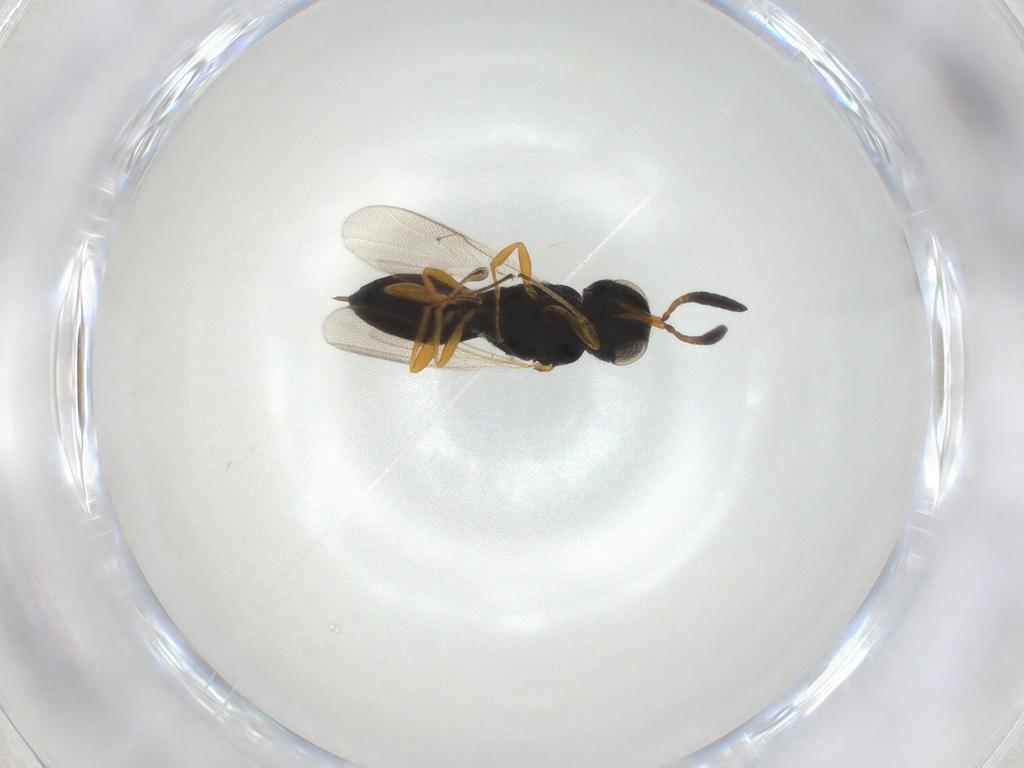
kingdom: Animalia
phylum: Arthropoda
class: Insecta
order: Hymenoptera
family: Scelionidae
